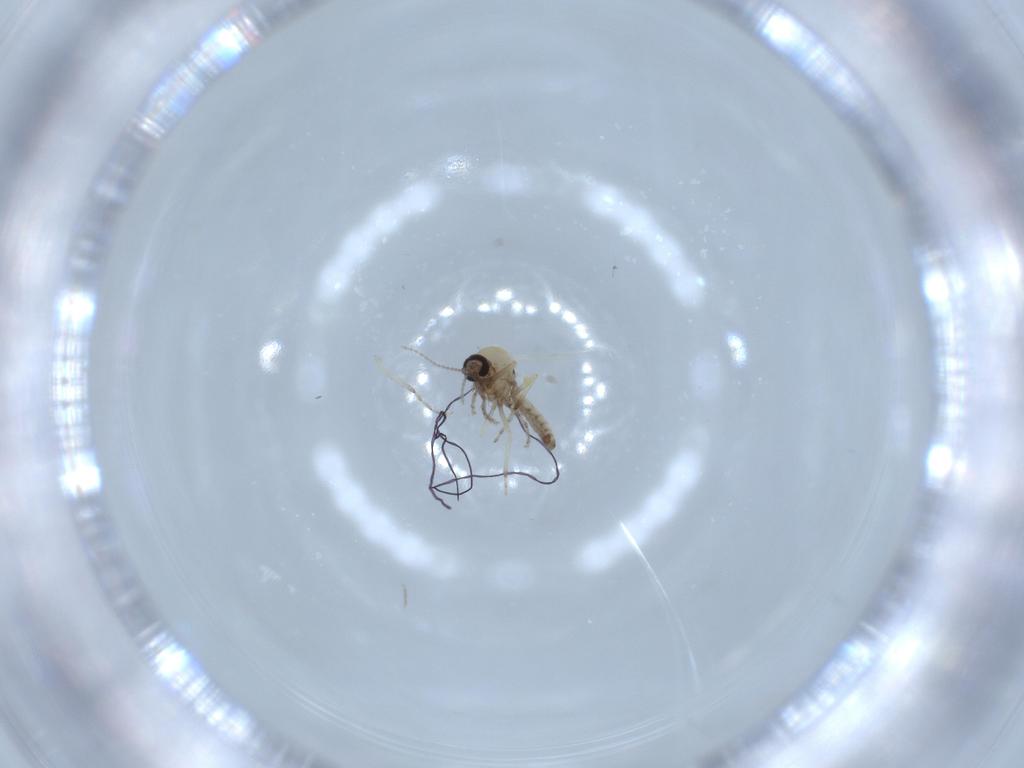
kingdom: Animalia
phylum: Arthropoda
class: Insecta
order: Diptera
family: Ceratopogonidae
